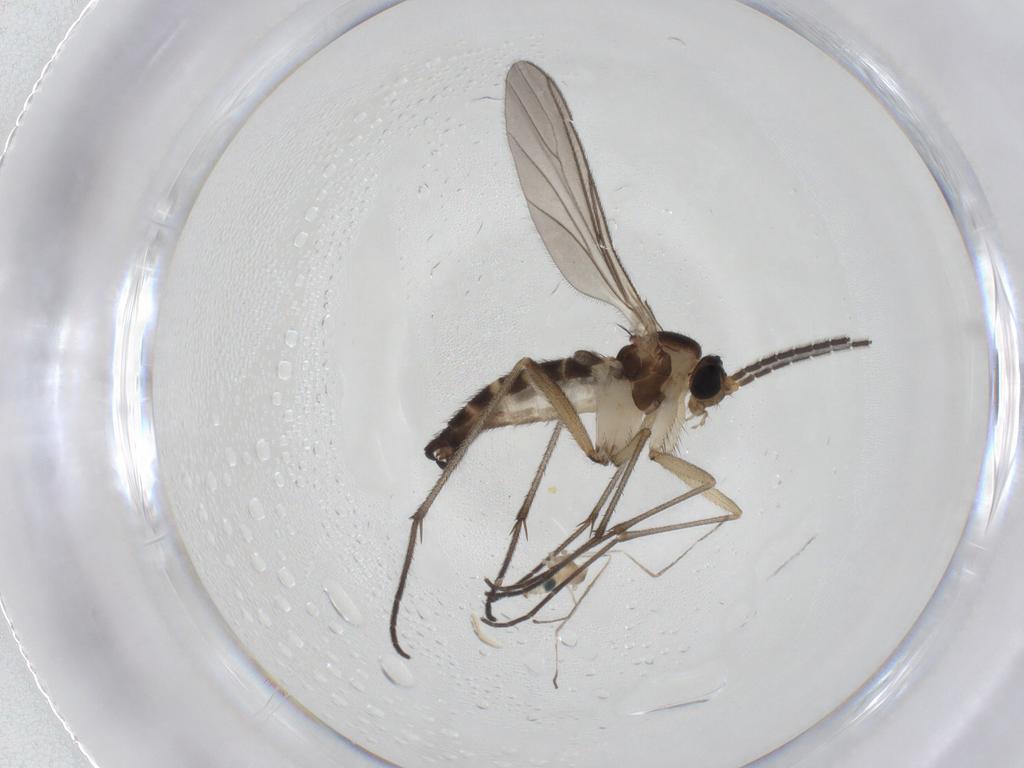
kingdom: Animalia
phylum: Arthropoda
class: Insecta
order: Diptera
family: Cecidomyiidae
